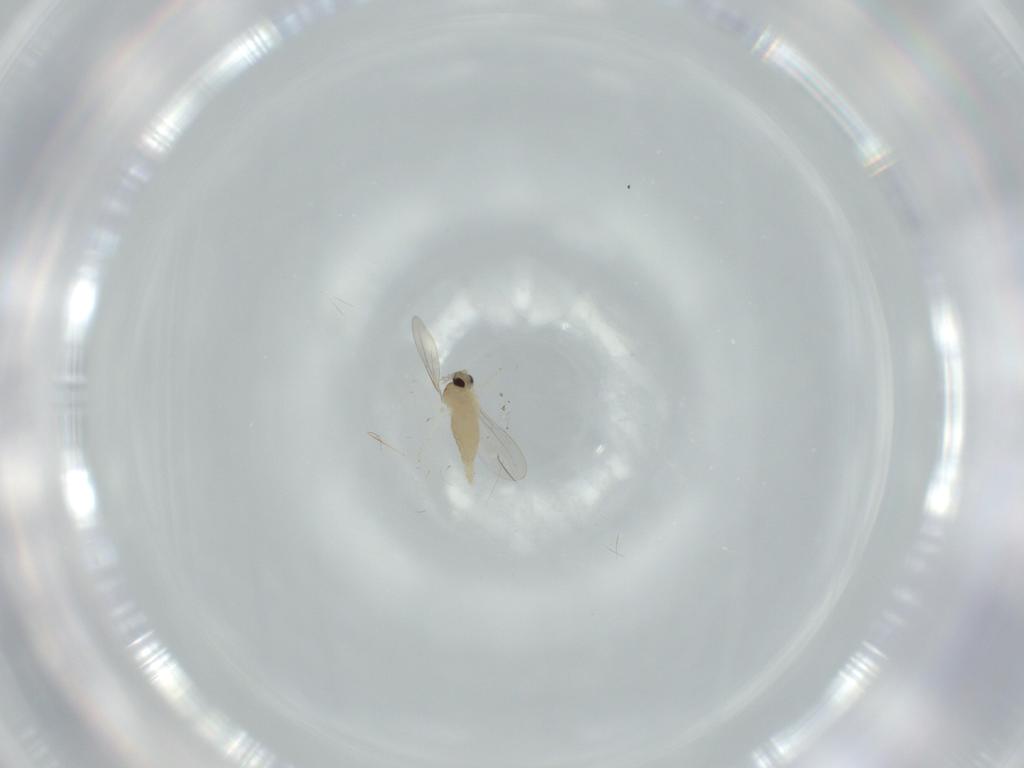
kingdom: Animalia
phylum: Arthropoda
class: Insecta
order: Diptera
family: Cecidomyiidae
